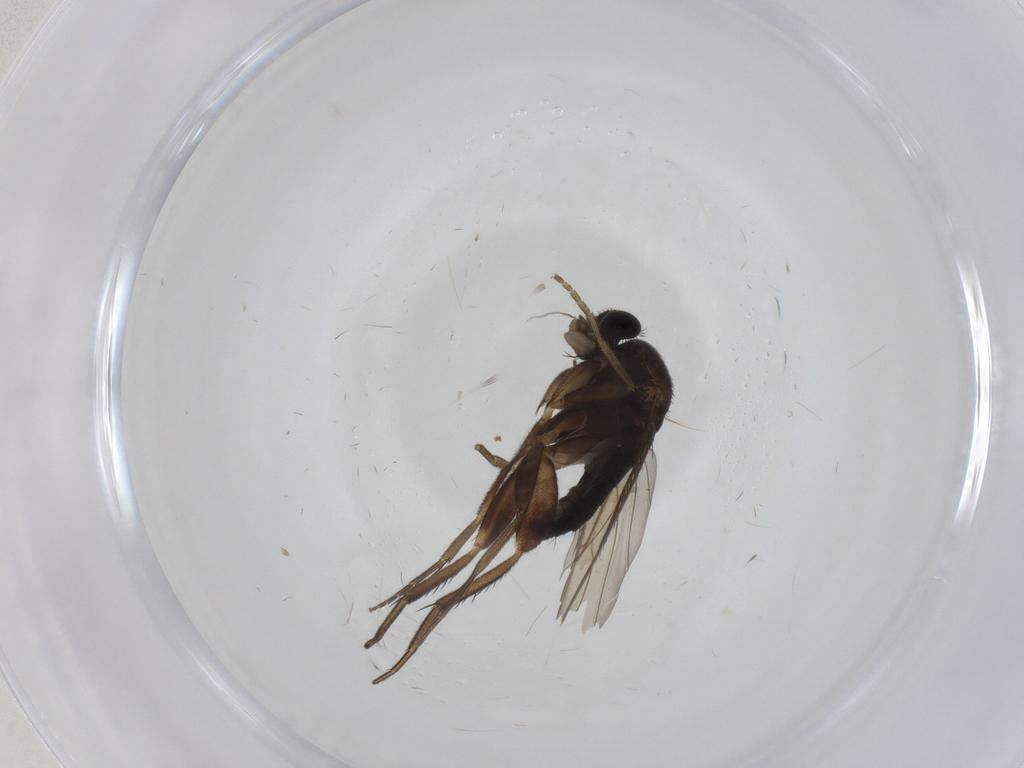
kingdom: Animalia
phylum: Arthropoda
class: Insecta
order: Diptera
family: Phoridae
